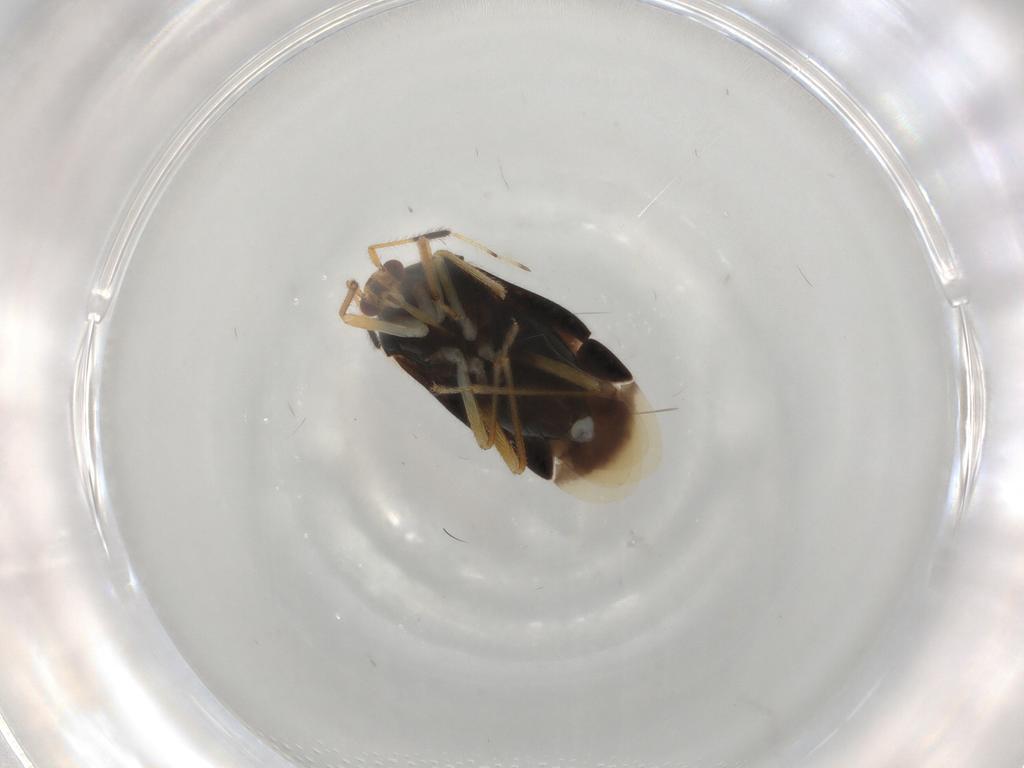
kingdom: Animalia
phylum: Arthropoda
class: Insecta
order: Hemiptera
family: Miridae
